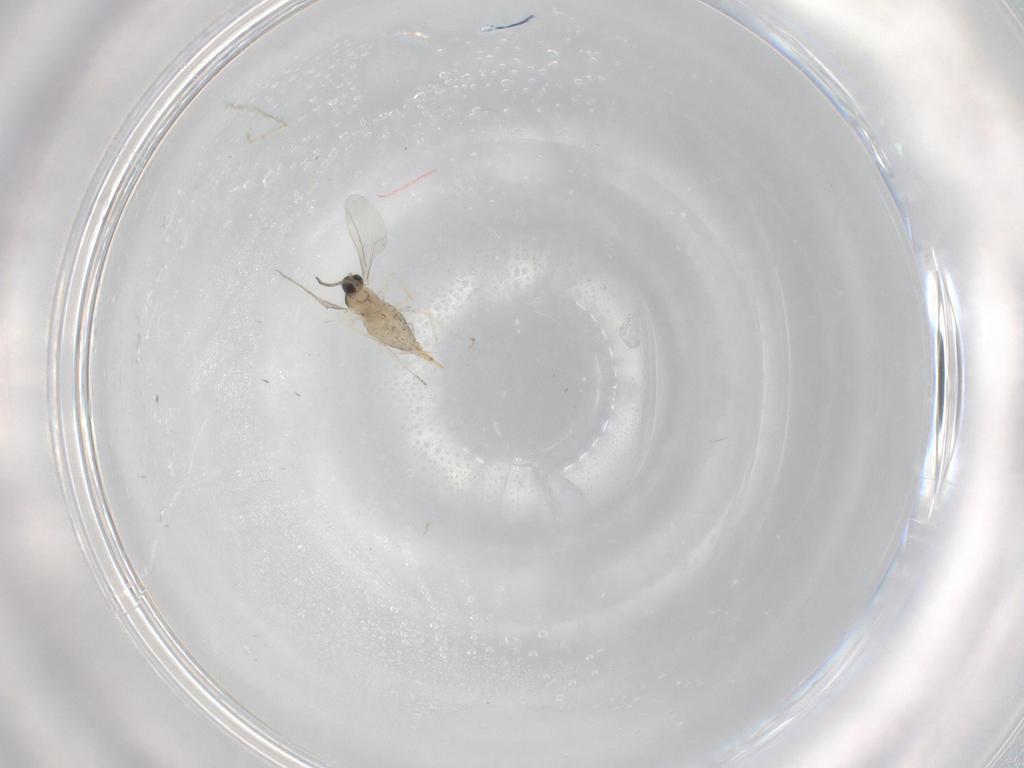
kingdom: Animalia
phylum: Arthropoda
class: Insecta
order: Diptera
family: Cecidomyiidae
